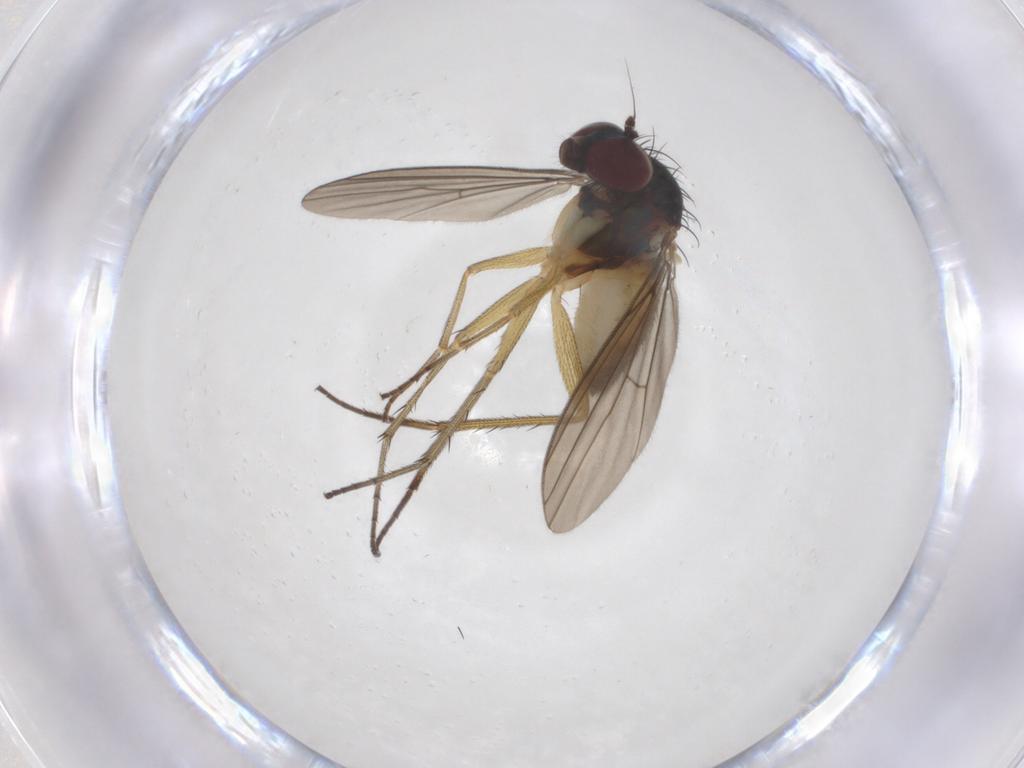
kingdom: Animalia
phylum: Arthropoda
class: Insecta
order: Diptera
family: Dolichopodidae
